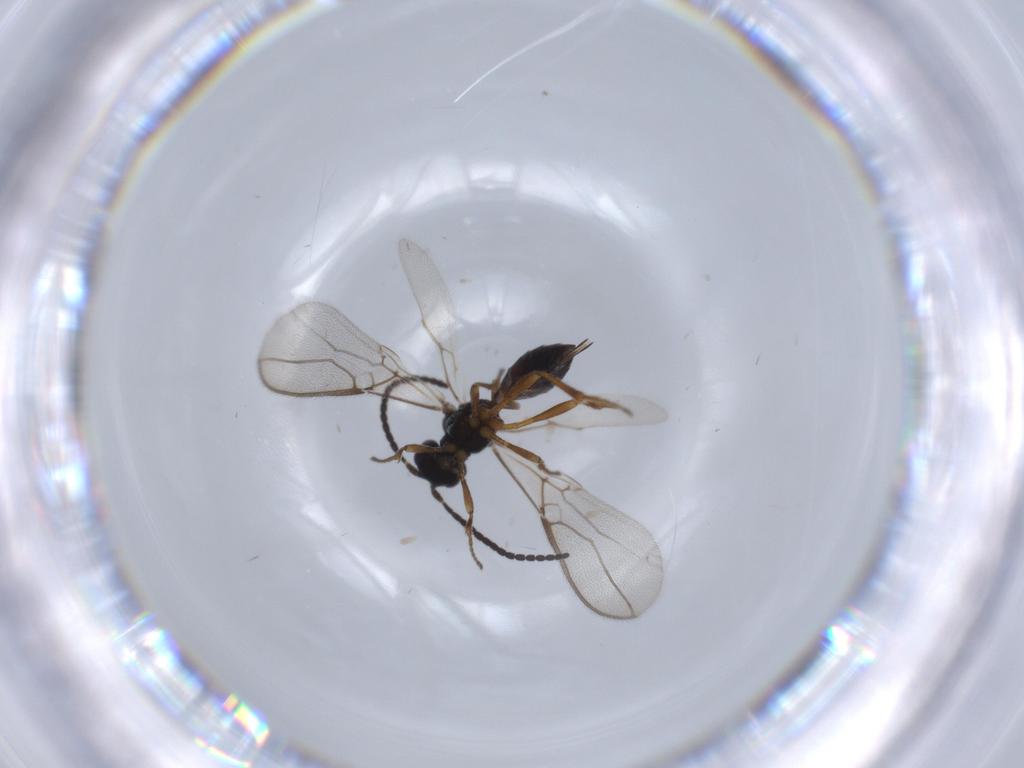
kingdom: Animalia
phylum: Arthropoda
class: Insecta
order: Hymenoptera
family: Braconidae
